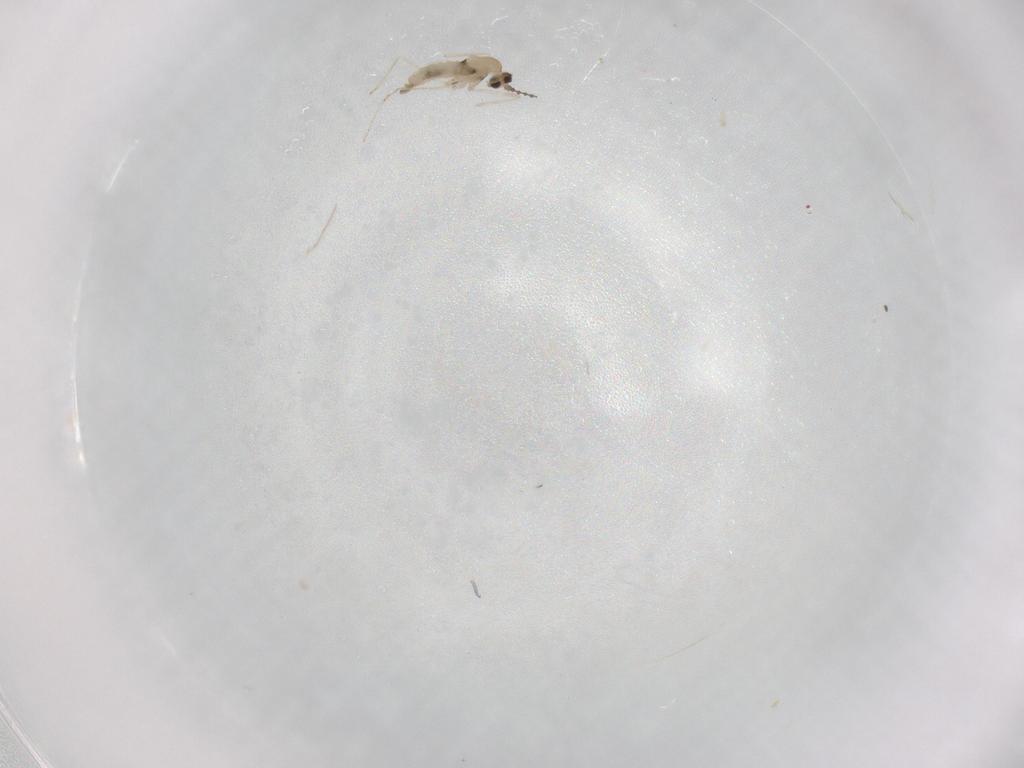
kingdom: Animalia
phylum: Arthropoda
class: Insecta
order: Diptera
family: Cecidomyiidae
